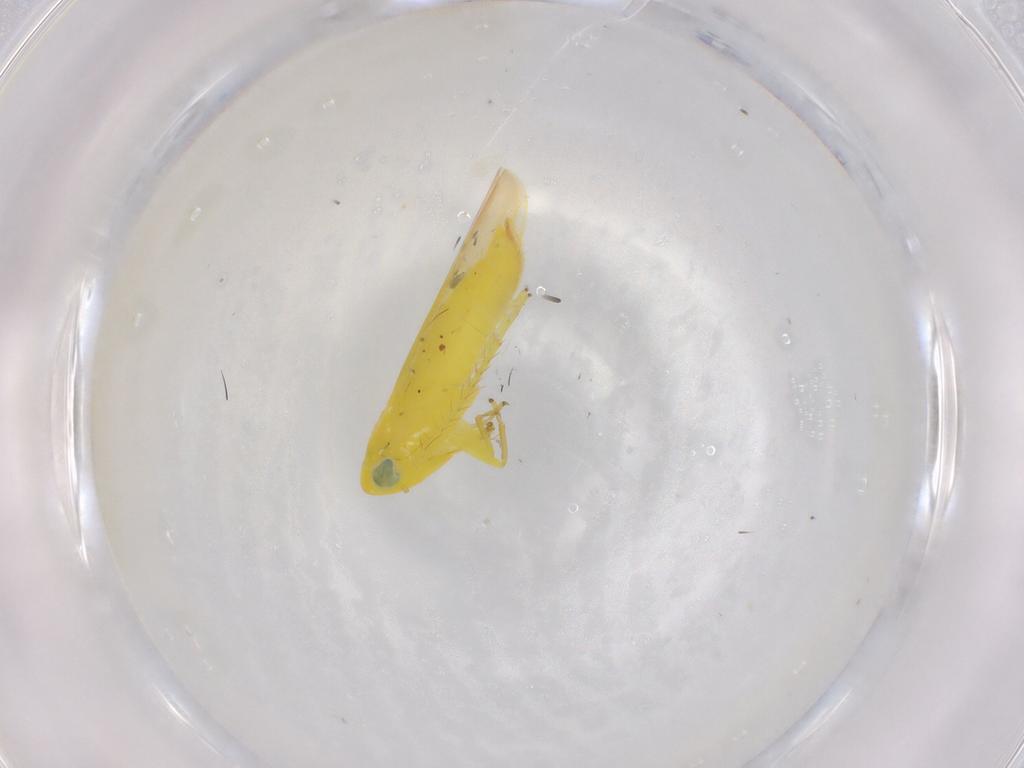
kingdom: Animalia
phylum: Arthropoda
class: Insecta
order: Hemiptera
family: Cicadellidae
